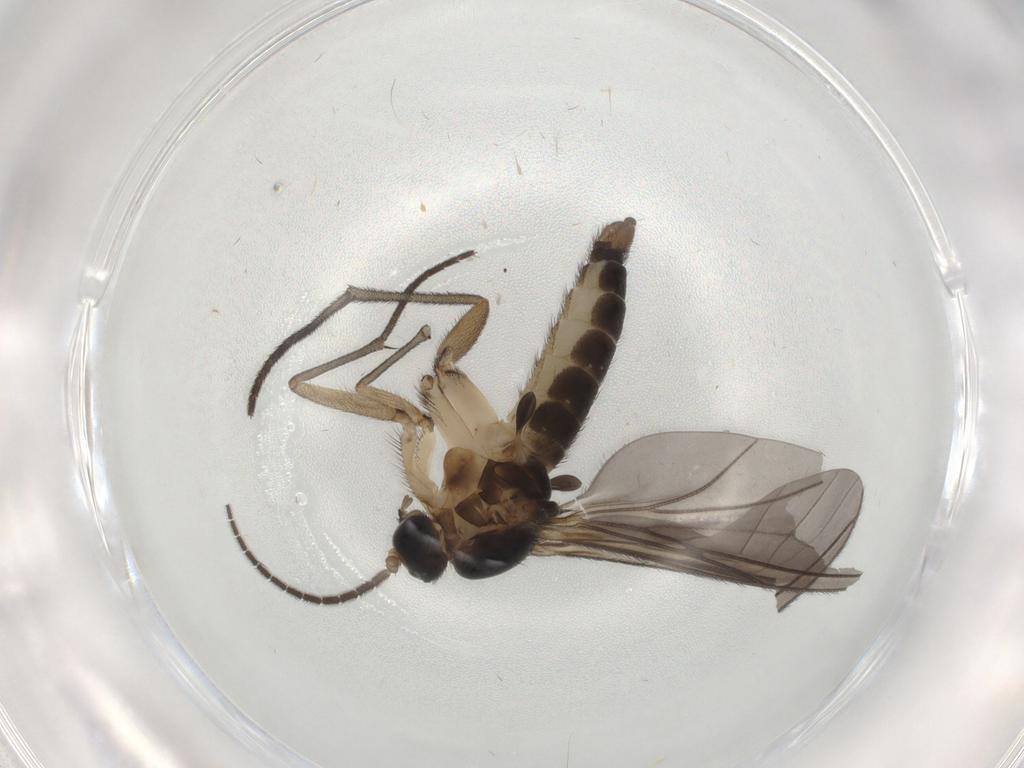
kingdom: Animalia
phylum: Arthropoda
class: Insecta
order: Diptera
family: Sciaridae
